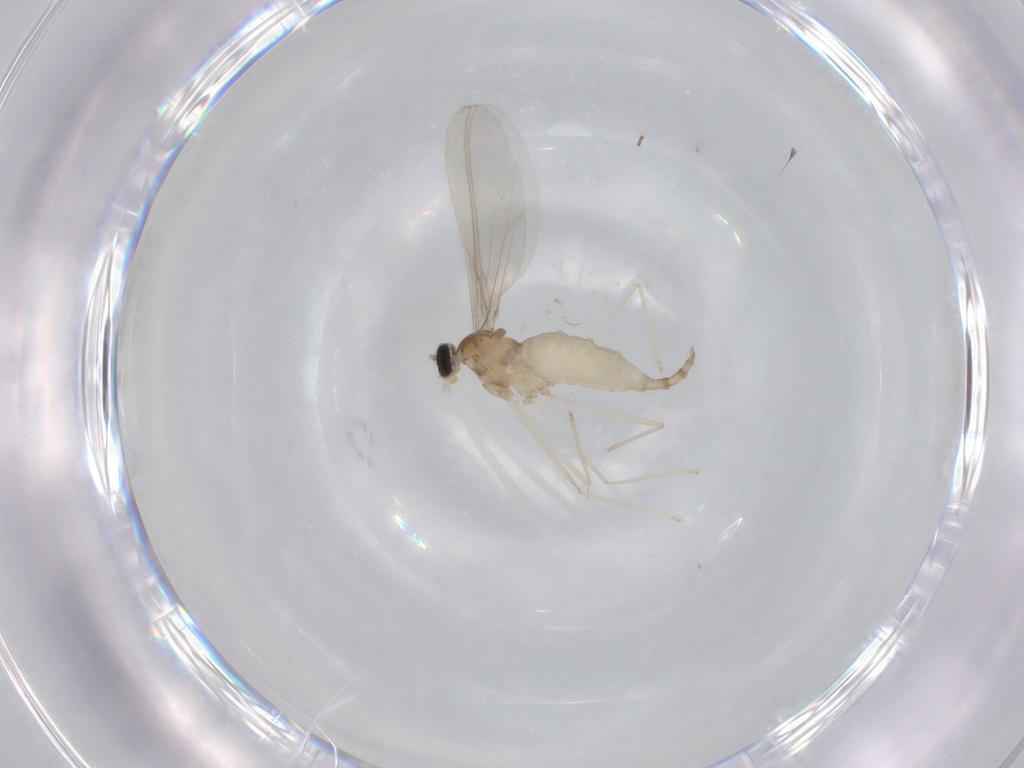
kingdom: Animalia
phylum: Arthropoda
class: Insecta
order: Diptera
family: Cecidomyiidae
